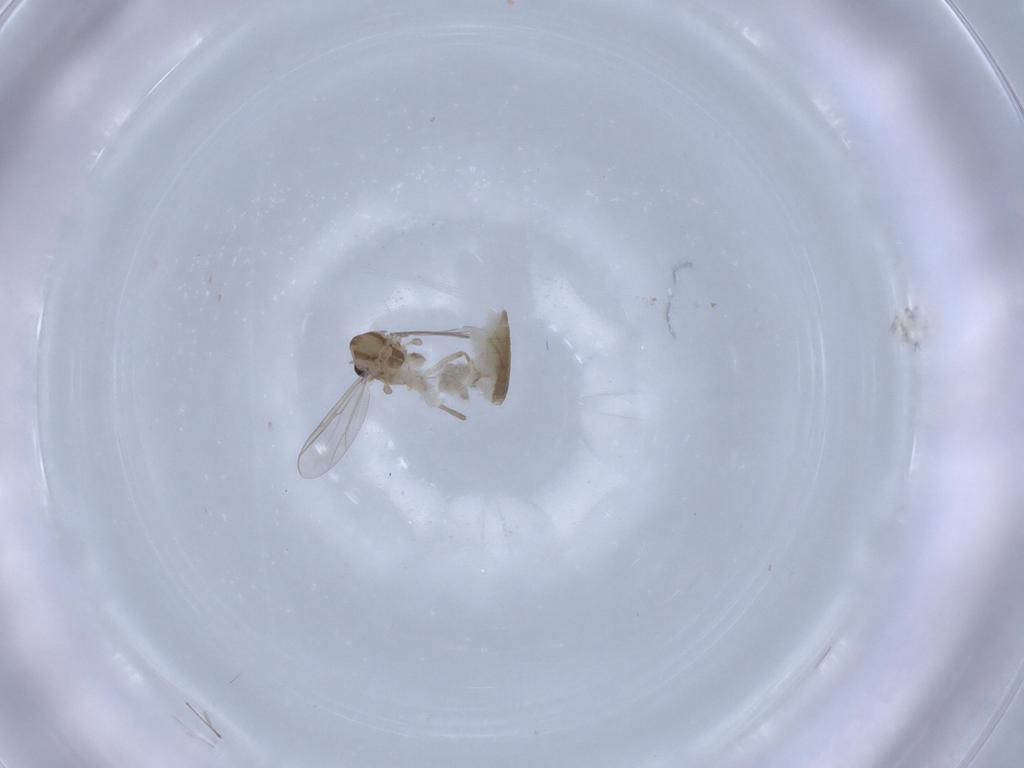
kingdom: Animalia
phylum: Arthropoda
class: Insecta
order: Diptera
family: Chironomidae
